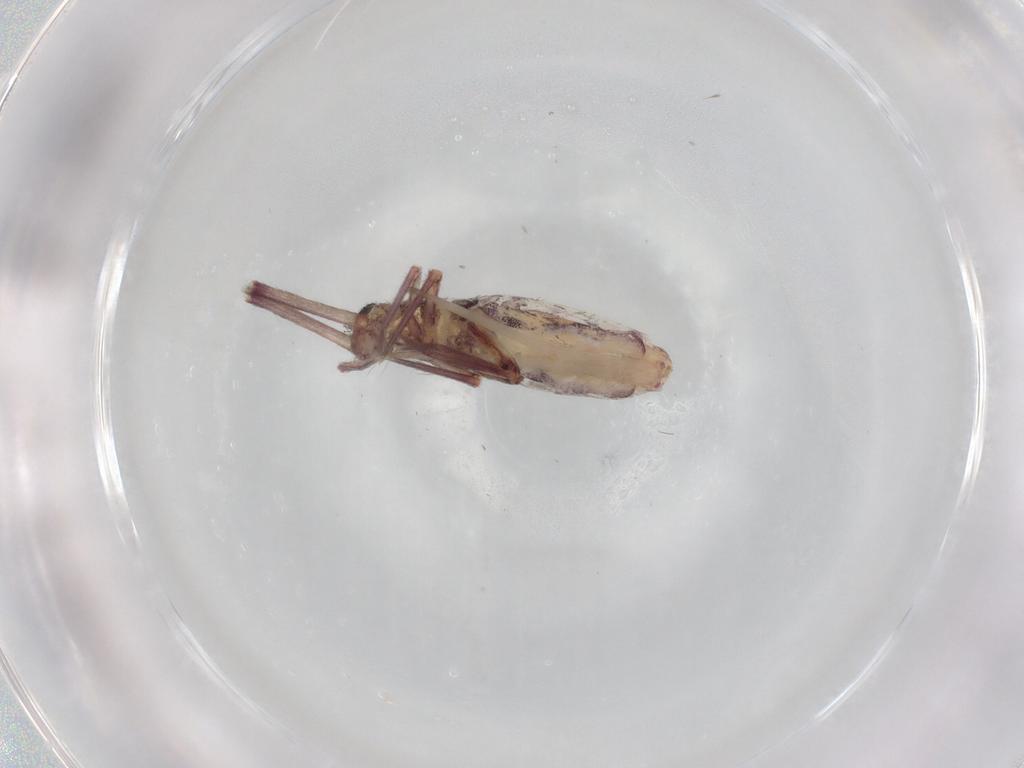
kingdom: Animalia
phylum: Arthropoda
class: Collembola
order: Entomobryomorpha
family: Entomobryidae
